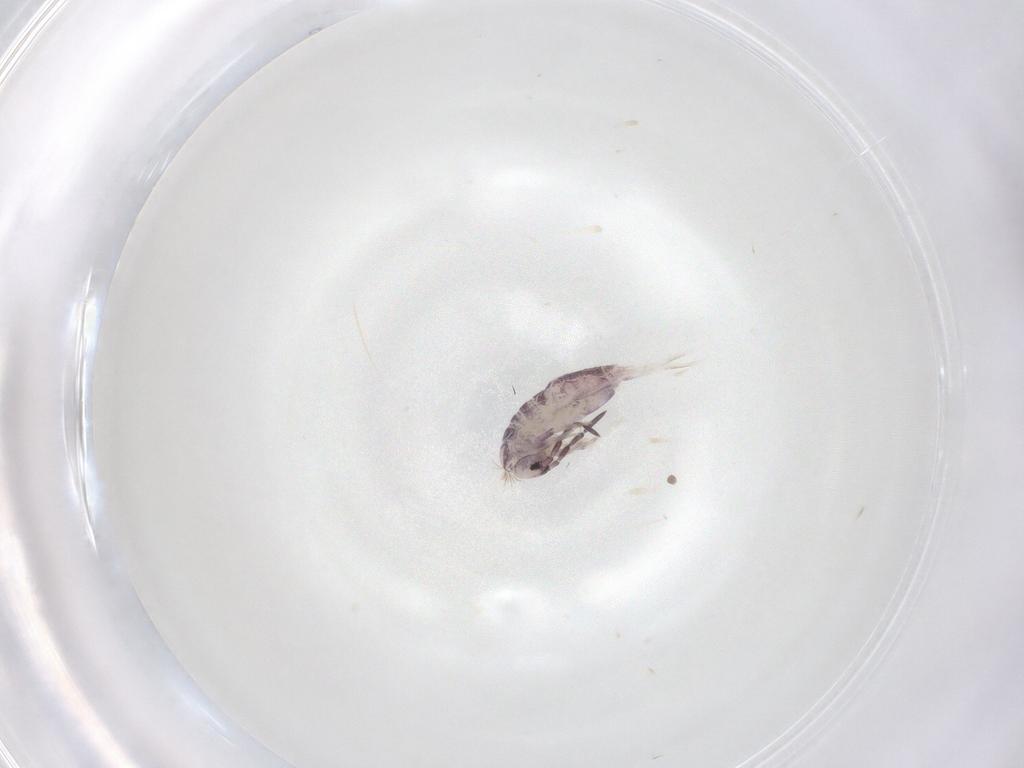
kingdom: Animalia
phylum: Arthropoda
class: Collembola
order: Poduromorpha
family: Hypogastruridae
